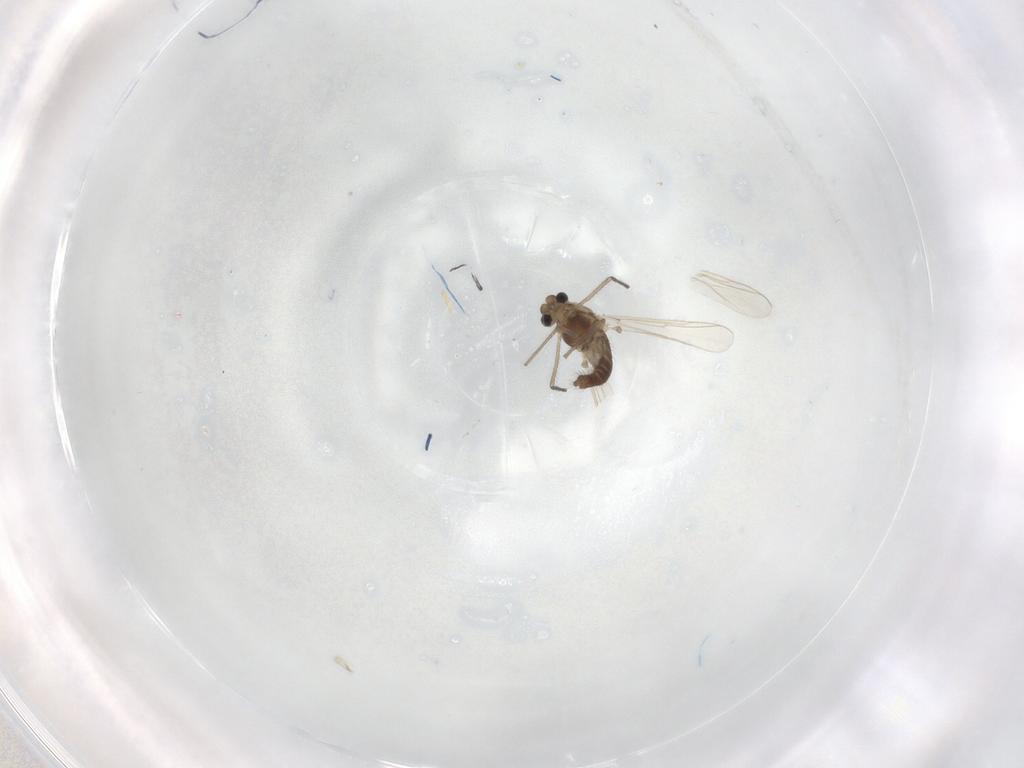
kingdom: Animalia
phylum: Arthropoda
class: Insecta
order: Diptera
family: Chironomidae
